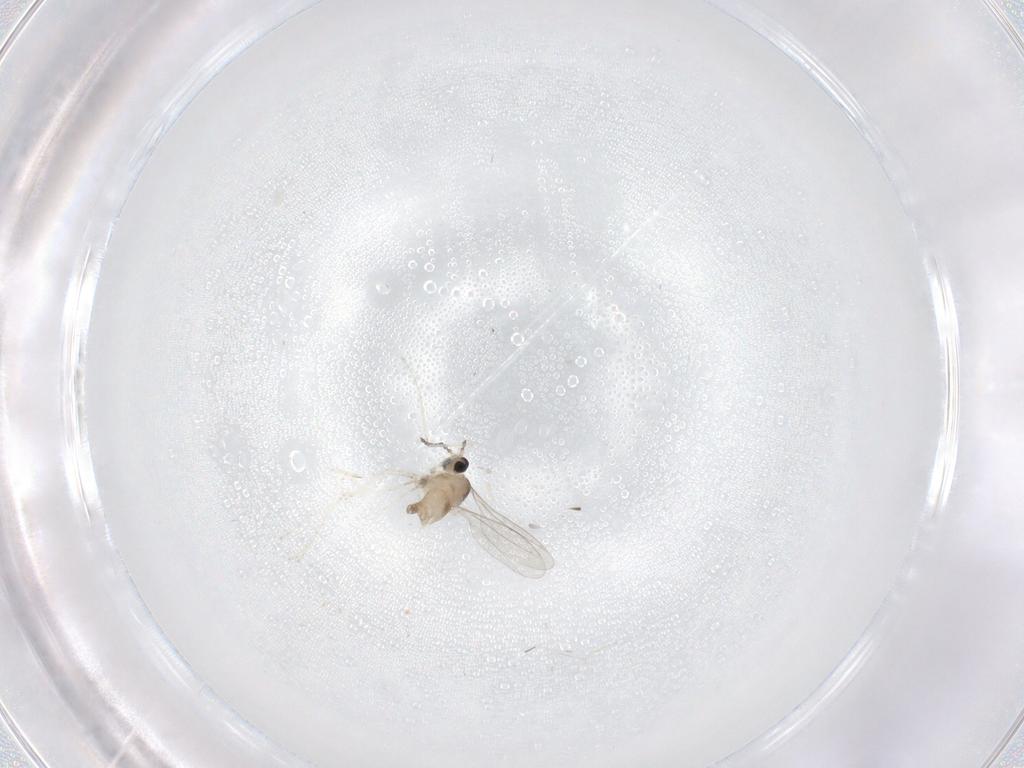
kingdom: Animalia
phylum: Arthropoda
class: Insecta
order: Diptera
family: Cecidomyiidae
